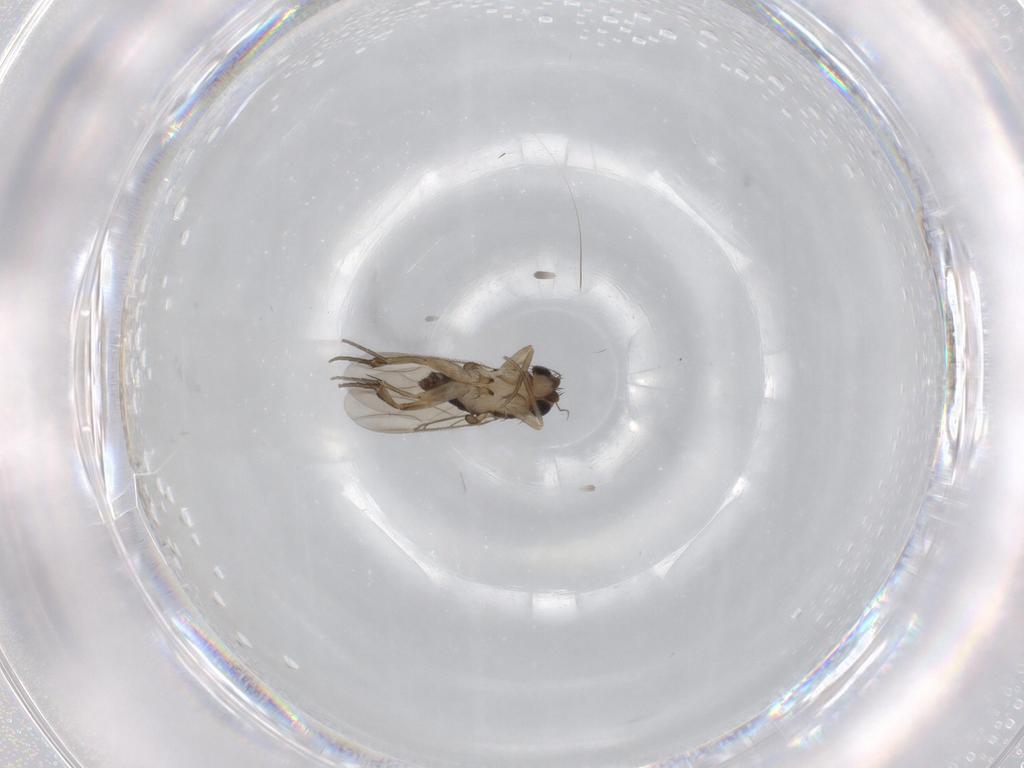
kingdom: Animalia
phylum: Arthropoda
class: Insecta
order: Diptera
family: Phoridae
